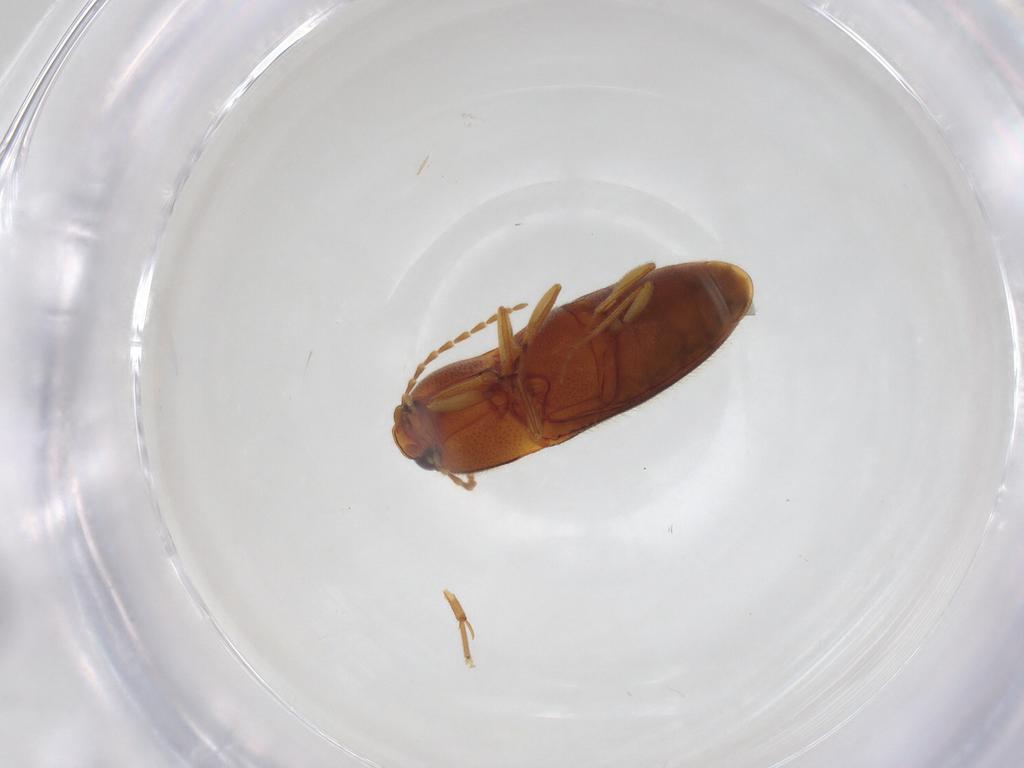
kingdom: Animalia
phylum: Arthropoda
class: Insecta
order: Coleoptera
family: Elateridae
